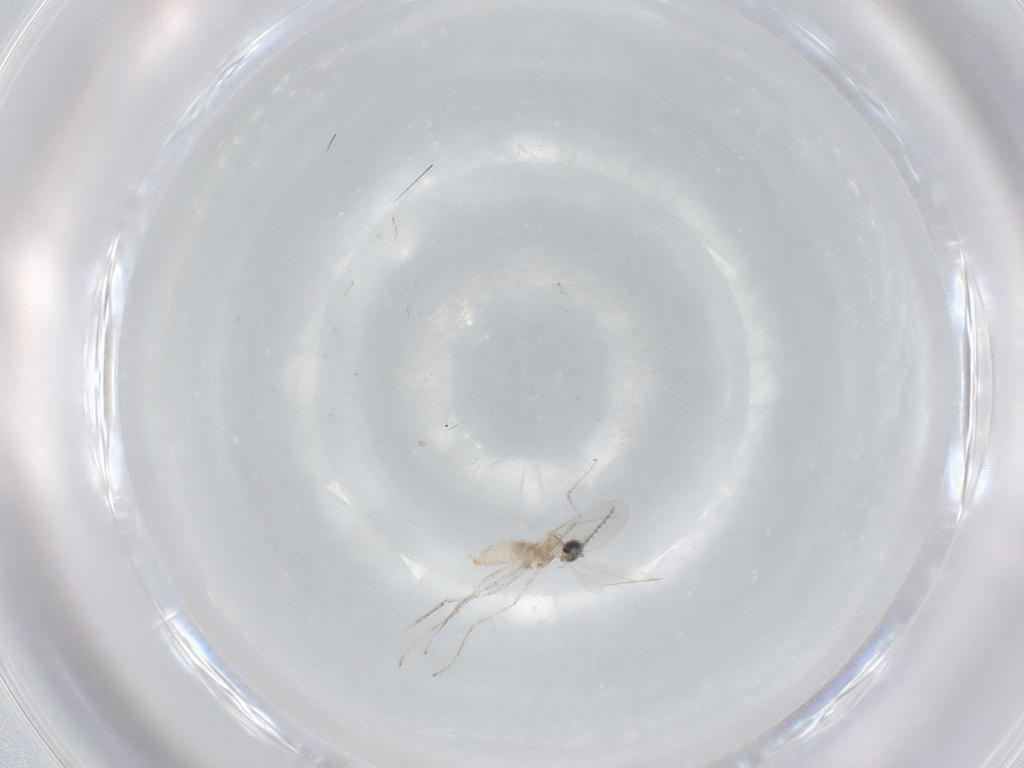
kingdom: Animalia
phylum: Arthropoda
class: Insecta
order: Diptera
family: Cecidomyiidae
